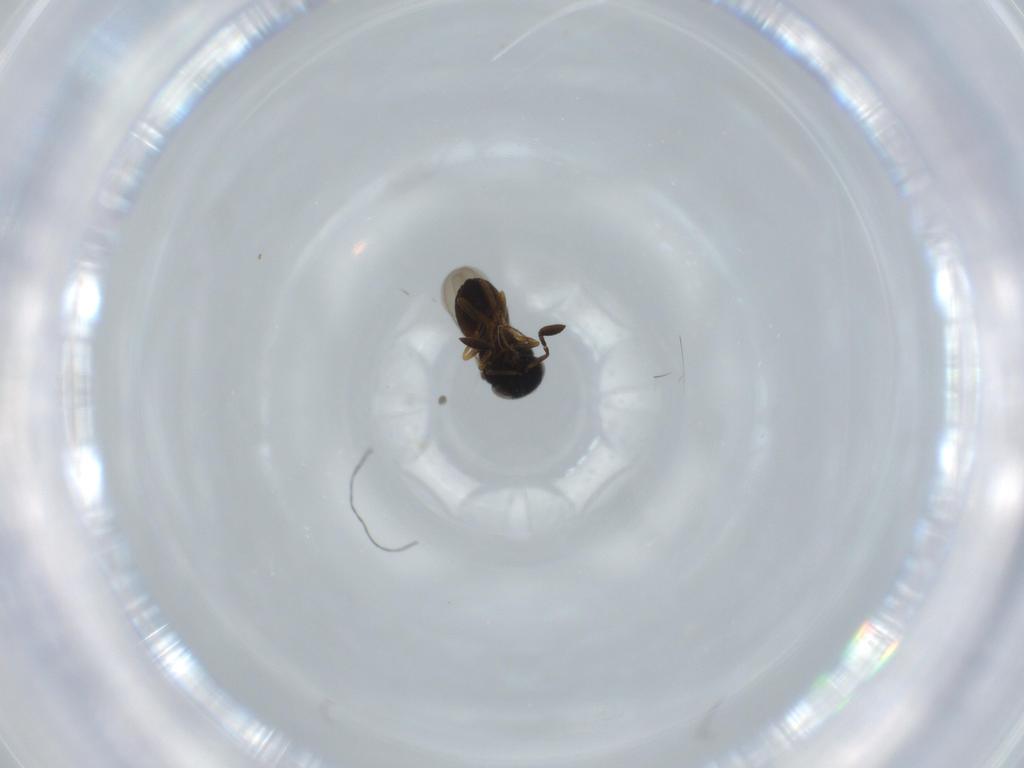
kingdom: Animalia
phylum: Arthropoda
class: Insecta
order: Coleoptera
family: Curculionidae
